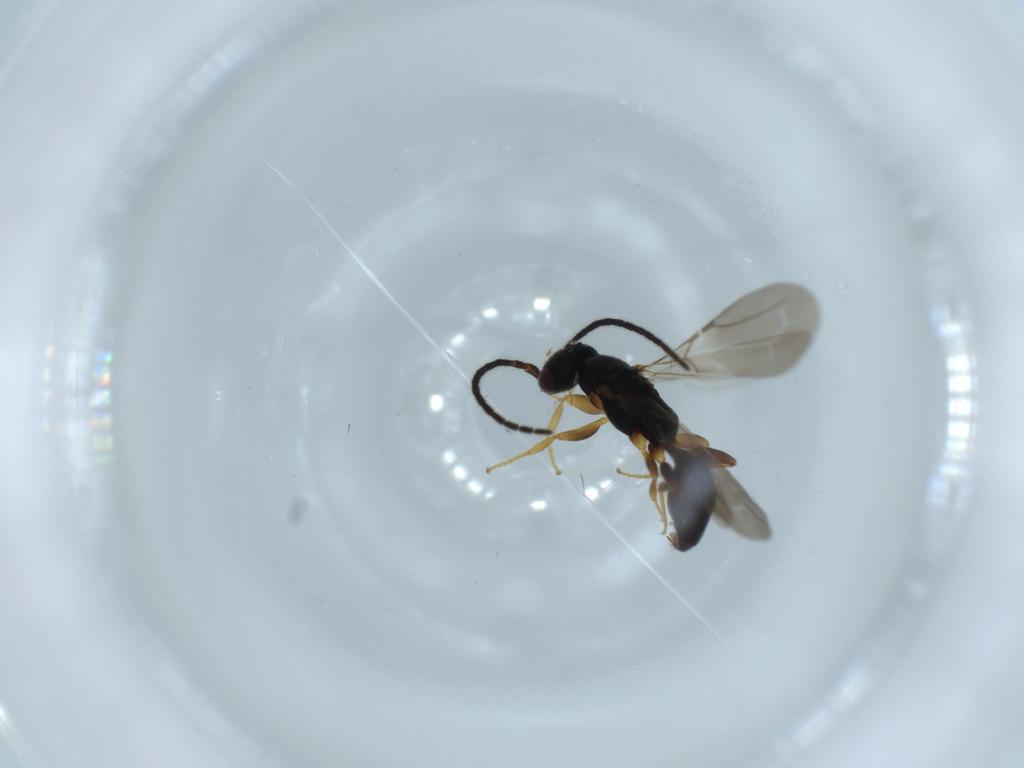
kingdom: Animalia
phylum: Arthropoda
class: Insecta
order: Hymenoptera
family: Bethylidae
